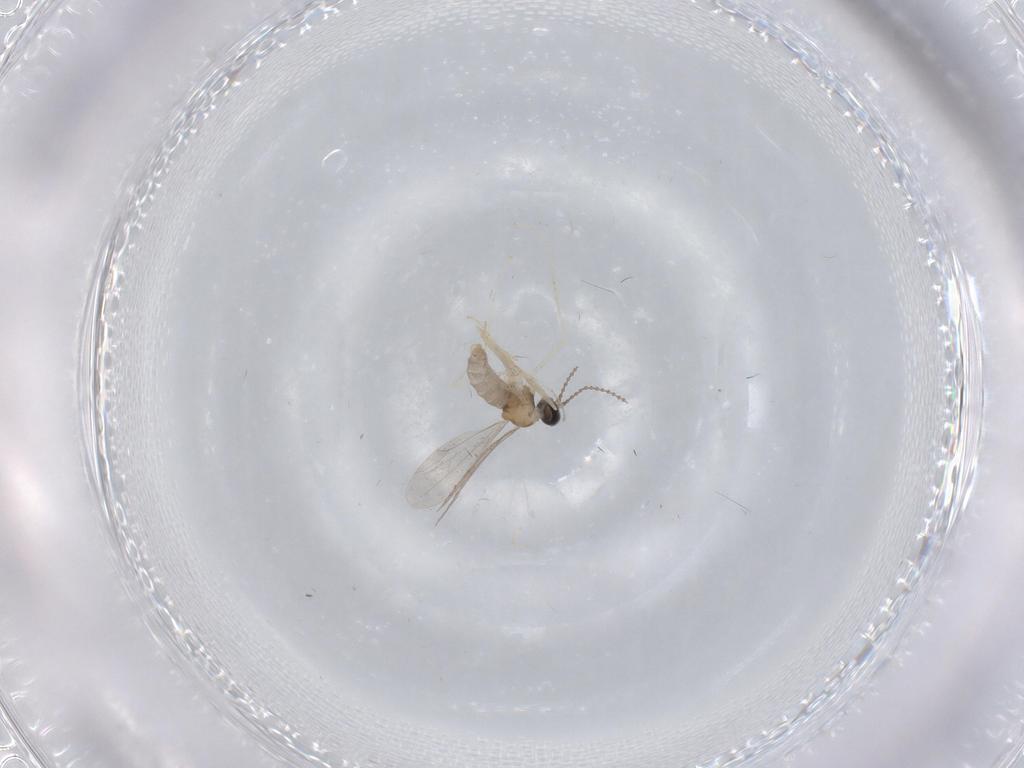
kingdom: Animalia
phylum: Arthropoda
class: Insecta
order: Diptera
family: Cecidomyiidae
